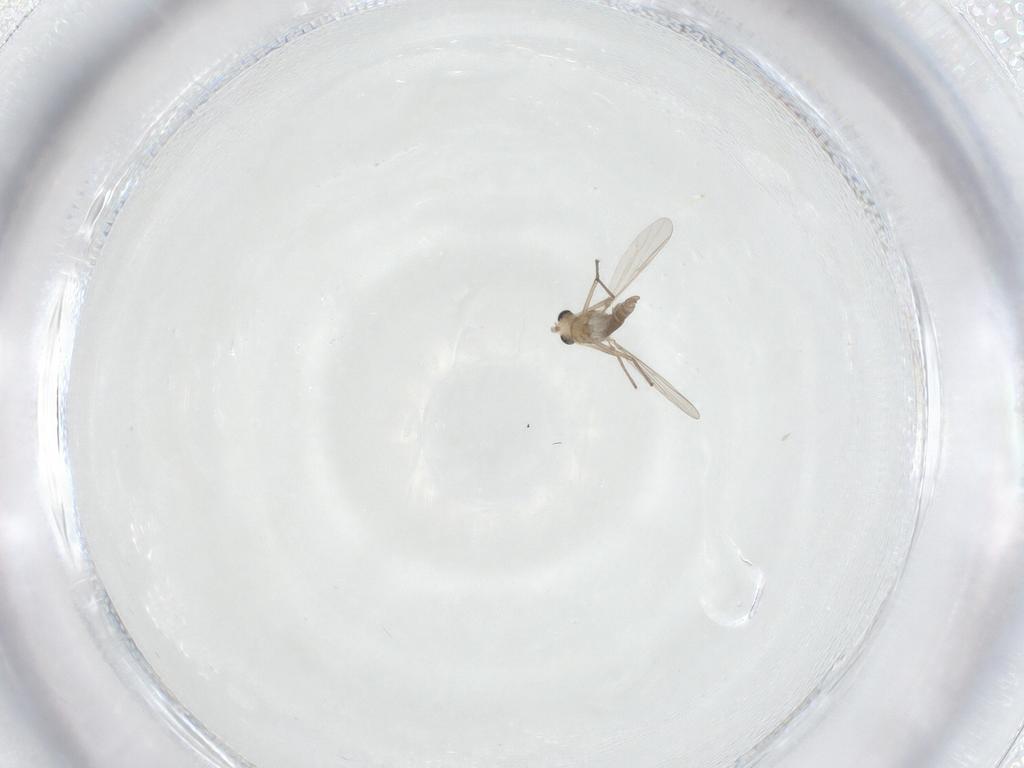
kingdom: Animalia
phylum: Arthropoda
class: Insecta
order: Diptera
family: Chironomidae
